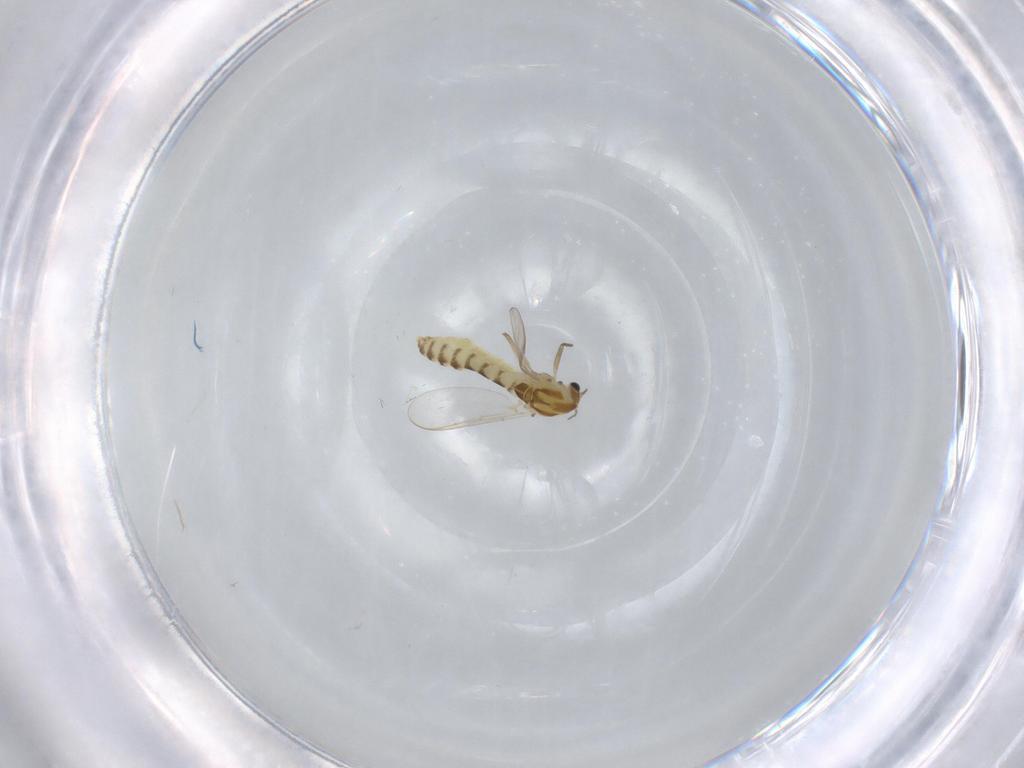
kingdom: Animalia
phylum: Arthropoda
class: Insecta
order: Diptera
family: Chironomidae
